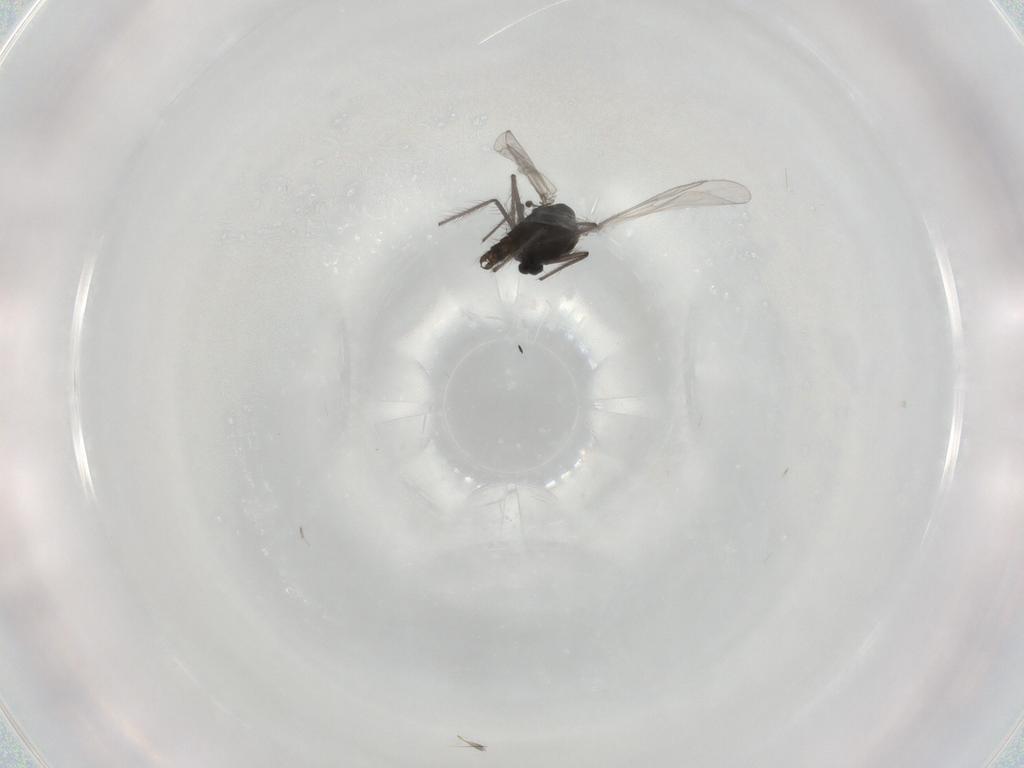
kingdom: Animalia
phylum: Arthropoda
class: Insecta
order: Diptera
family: Chironomidae
